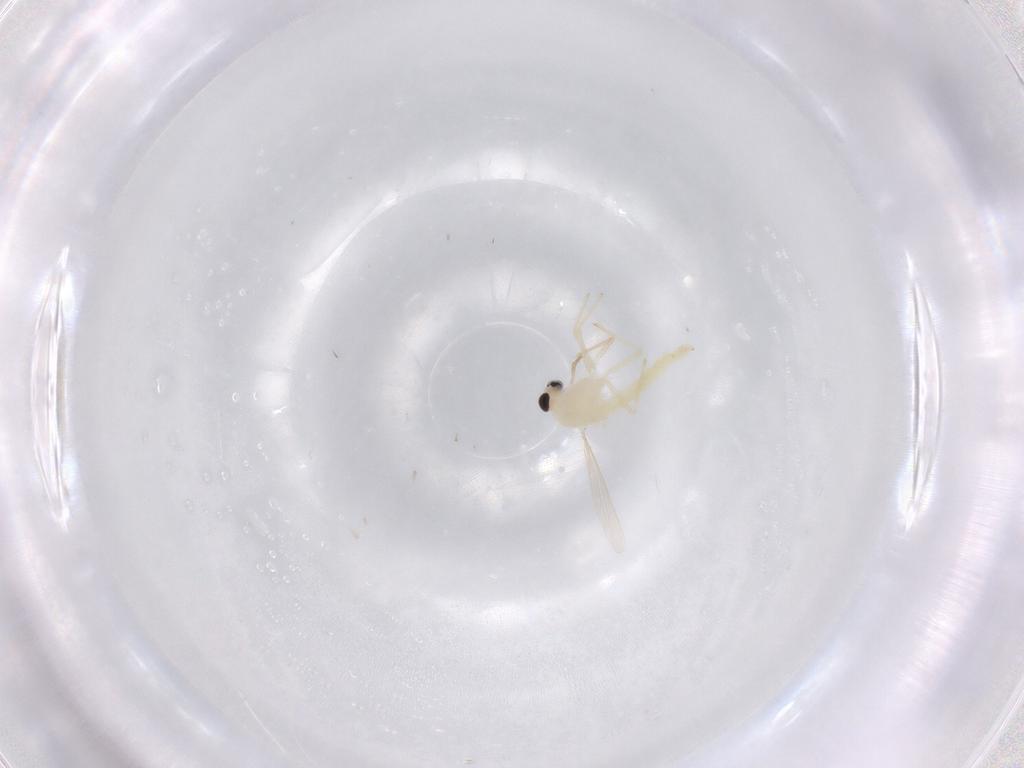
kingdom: Animalia
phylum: Arthropoda
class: Insecta
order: Diptera
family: Chironomidae
